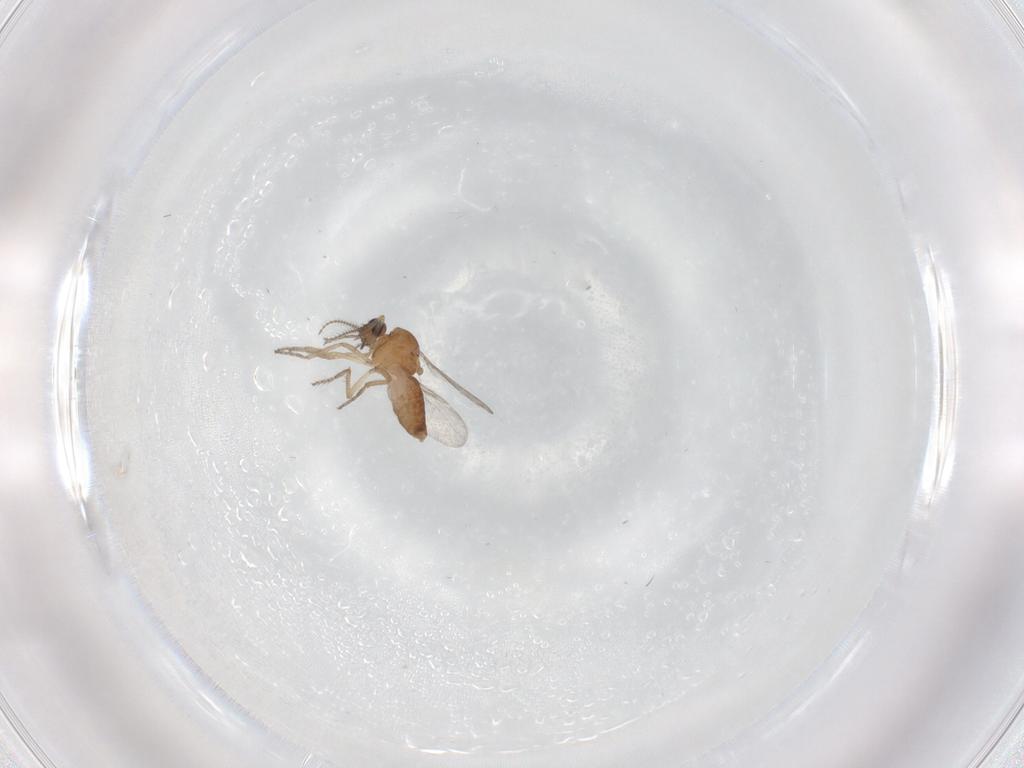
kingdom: Animalia
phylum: Arthropoda
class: Insecta
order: Diptera
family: Ceratopogonidae
